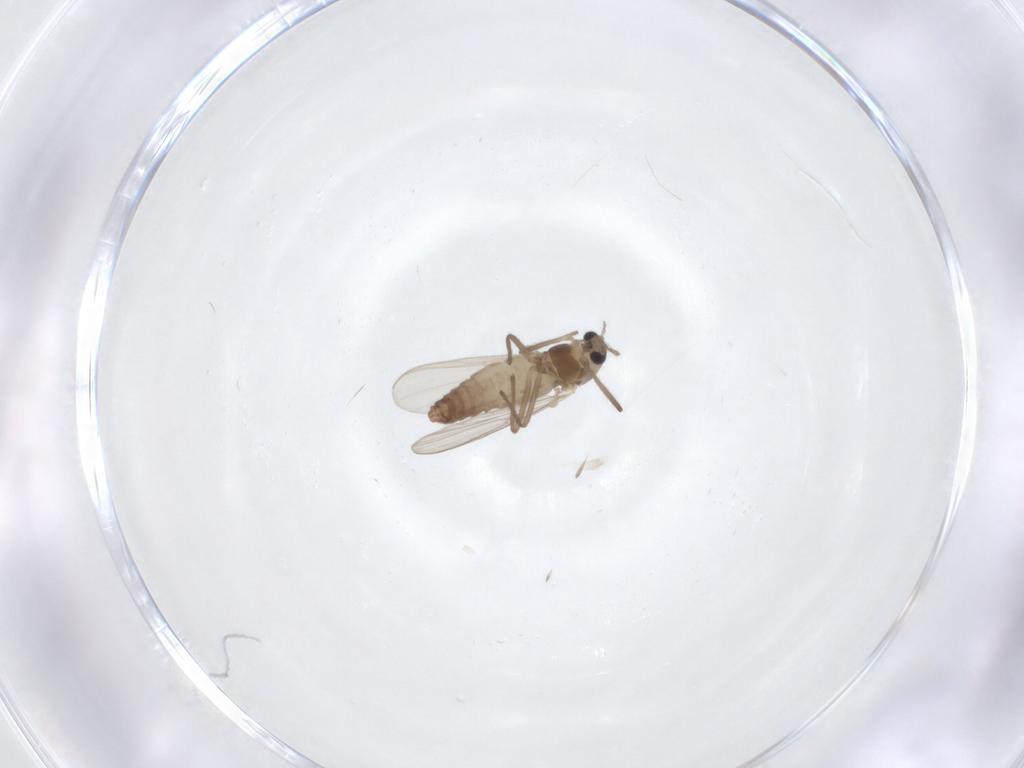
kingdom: Animalia
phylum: Arthropoda
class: Insecta
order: Diptera
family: Chironomidae
